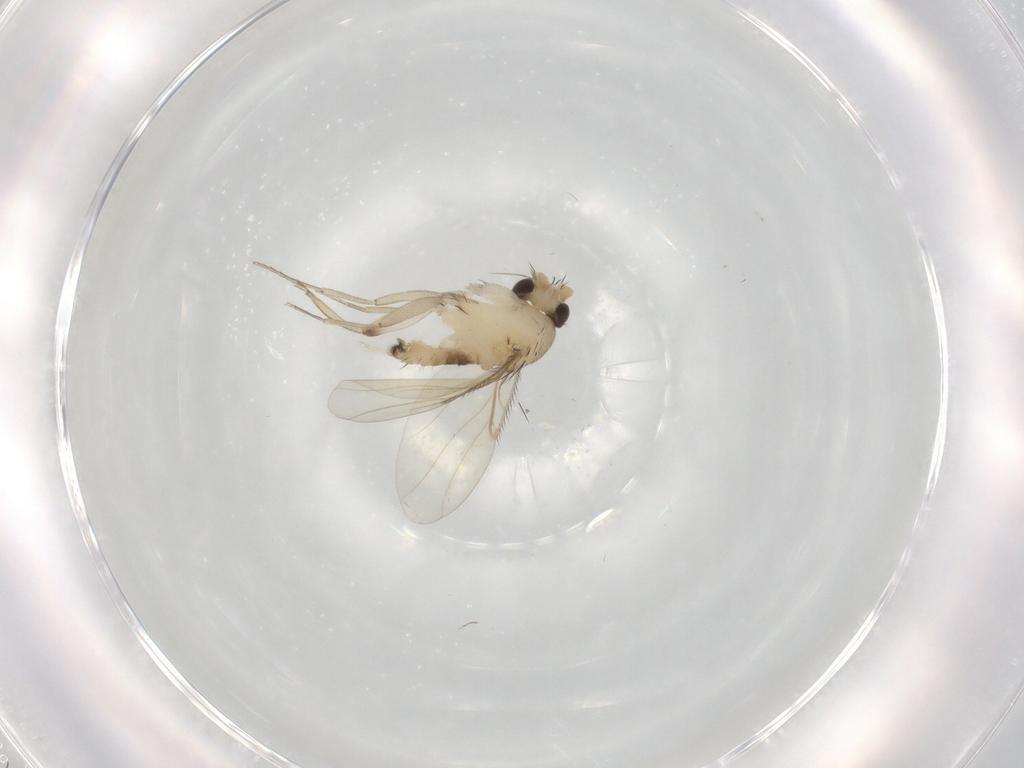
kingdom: Animalia
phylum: Arthropoda
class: Insecta
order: Diptera
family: Phoridae
